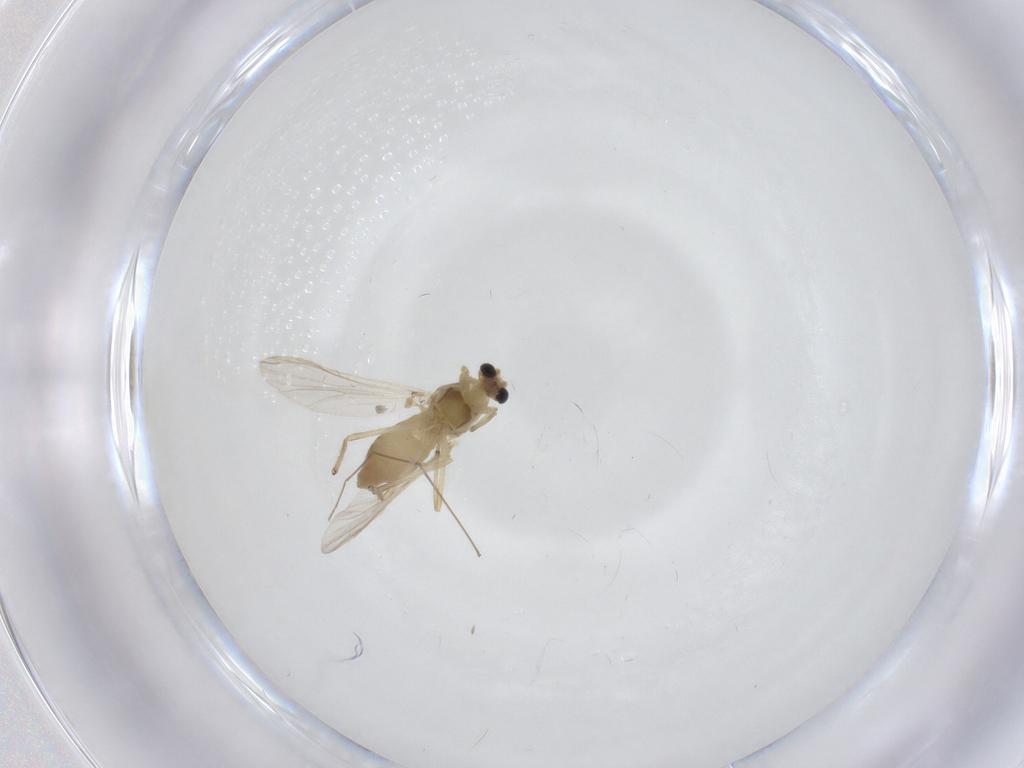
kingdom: Animalia
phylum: Arthropoda
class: Insecta
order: Diptera
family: Chironomidae
